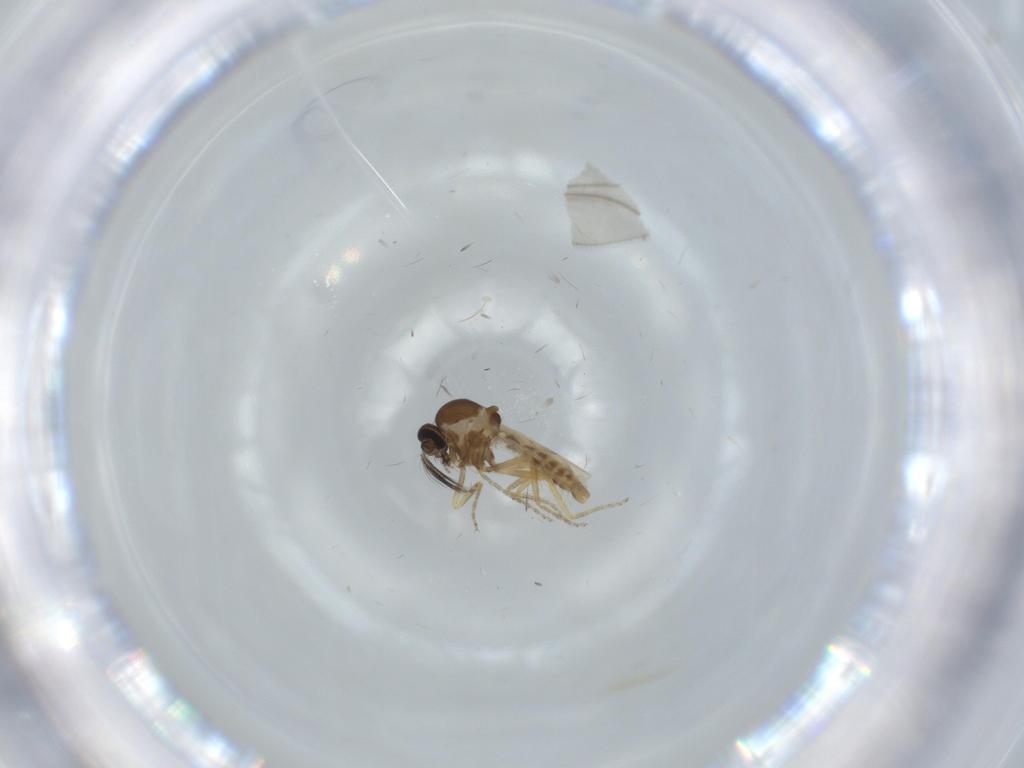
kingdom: Animalia
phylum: Arthropoda
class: Insecta
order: Diptera
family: Ceratopogonidae
